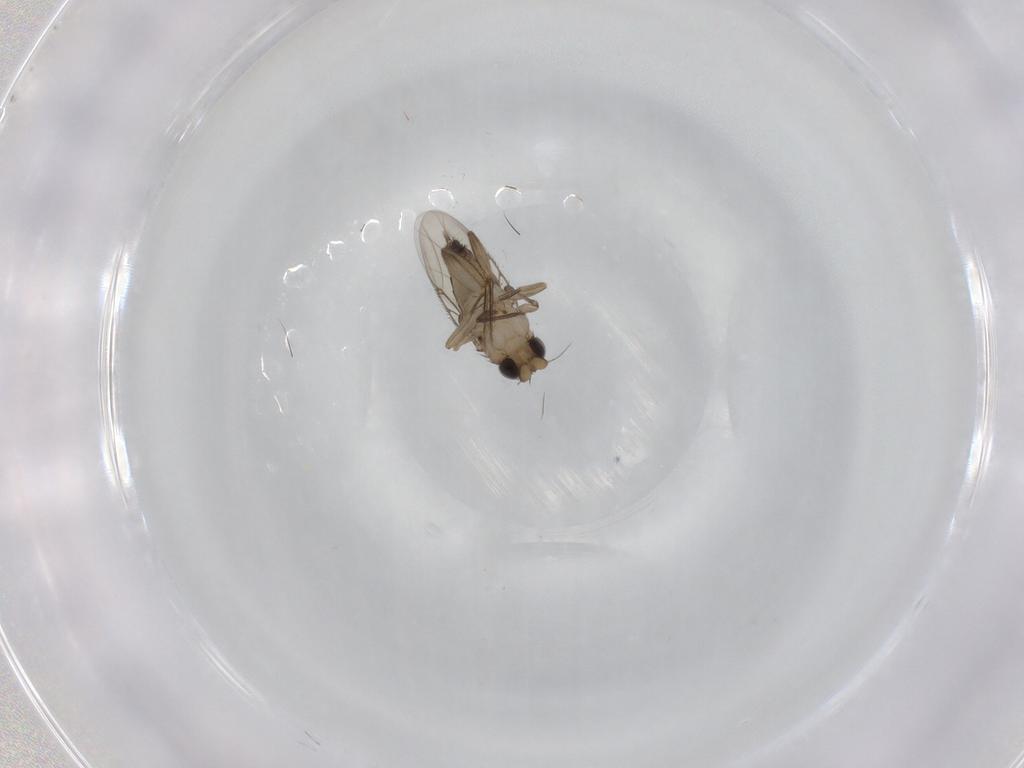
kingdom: Animalia
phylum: Arthropoda
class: Insecta
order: Diptera
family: Phoridae
